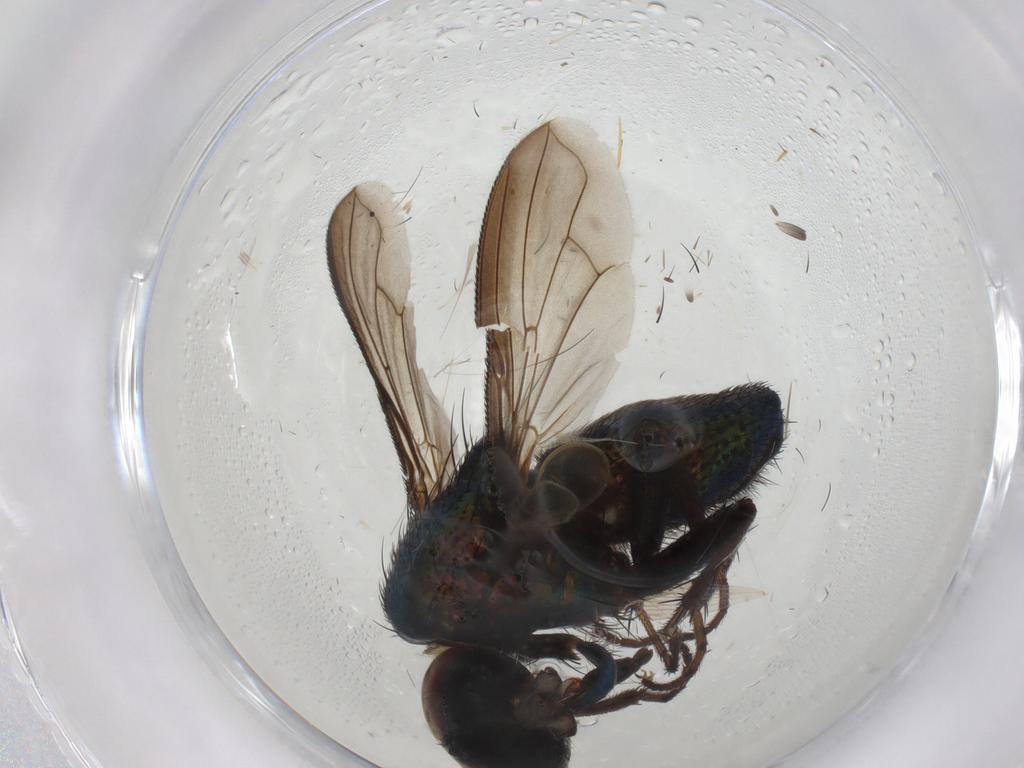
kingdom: Animalia
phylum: Arthropoda
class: Insecta
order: Diptera
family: Calliphoridae
